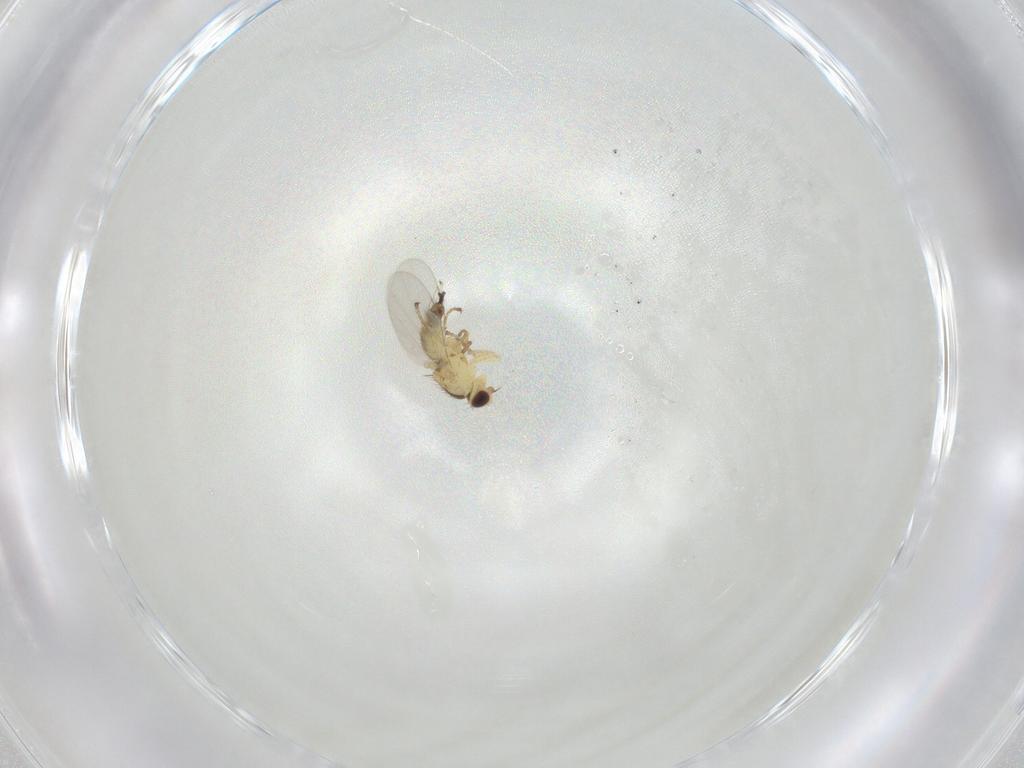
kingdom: Animalia
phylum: Arthropoda
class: Insecta
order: Diptera
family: Agromyzidae
